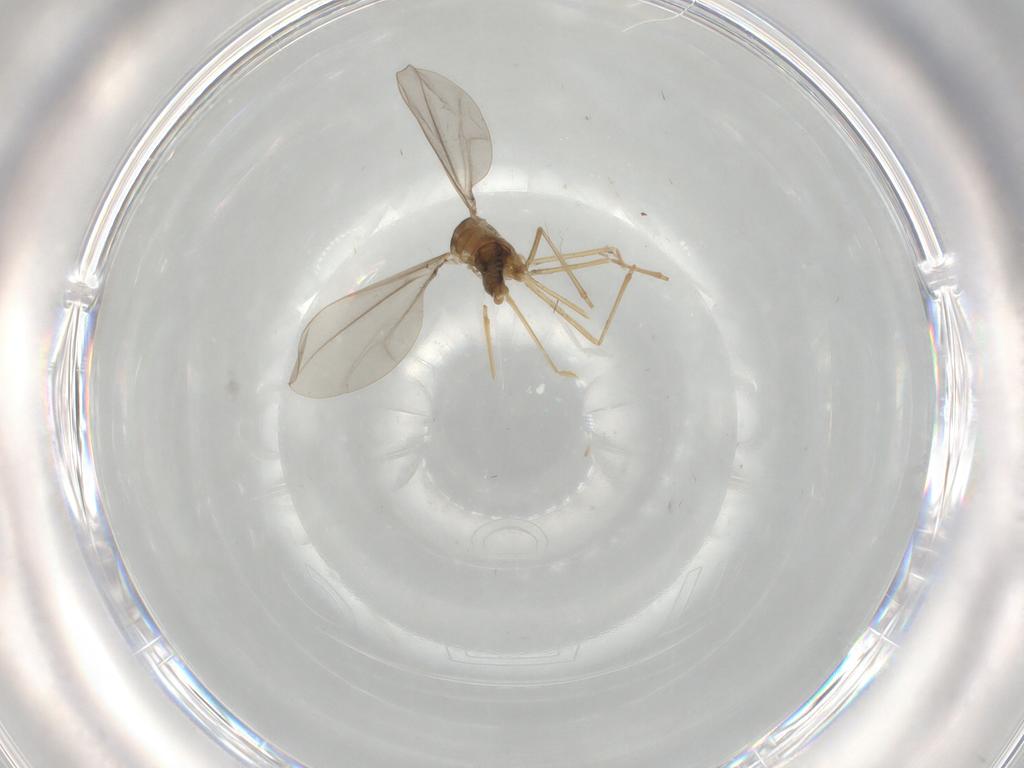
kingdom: Animalia
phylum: Arthropoda
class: Insecta
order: Diptera
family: Cecidomyiidae
